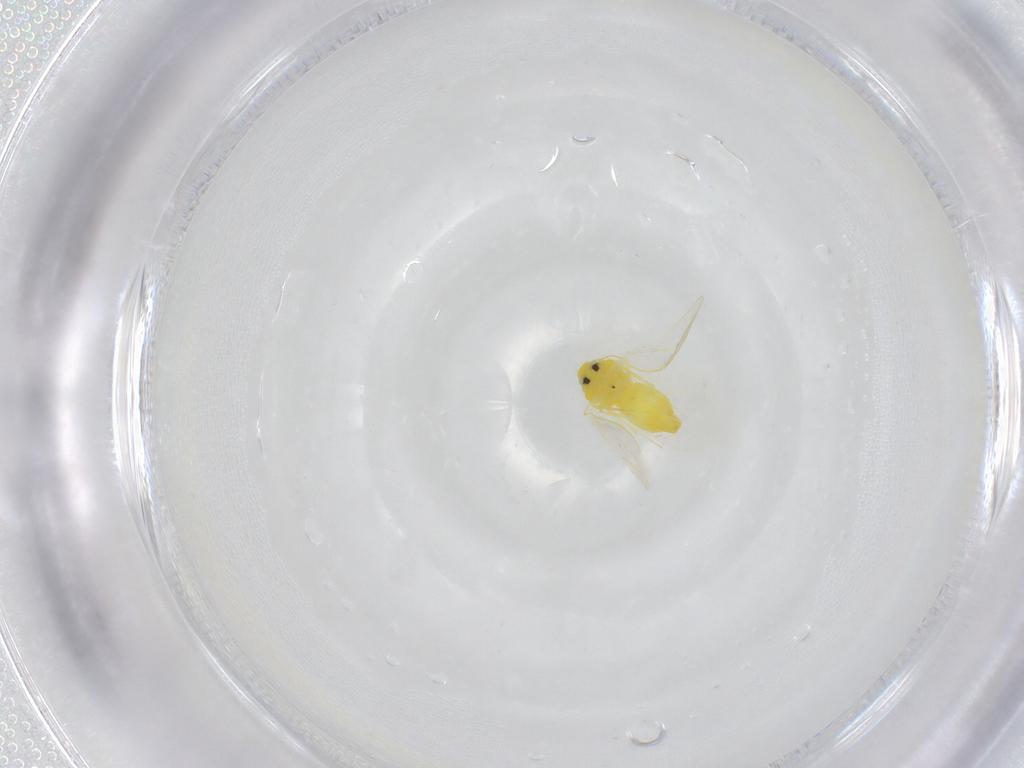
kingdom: Animalia
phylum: Arthropoda
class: Insecta
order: Hemiptera
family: Aleyrodidae
